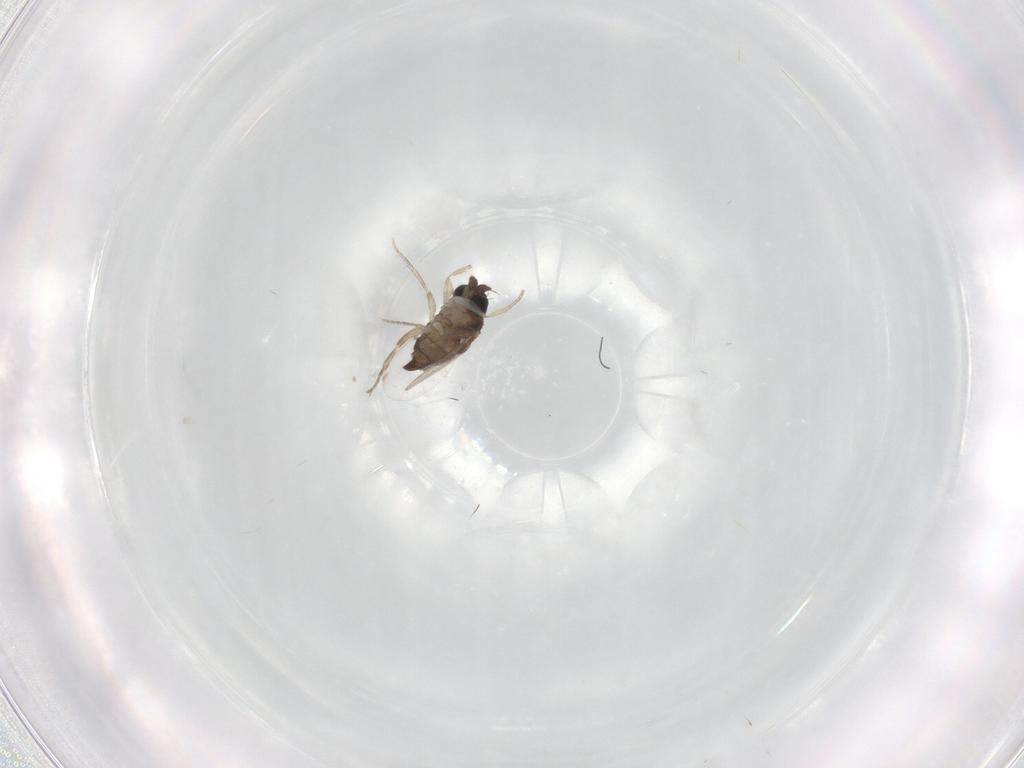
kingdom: Animalia
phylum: Arthropoda
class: Insecta
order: Diptera
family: Phoridae
